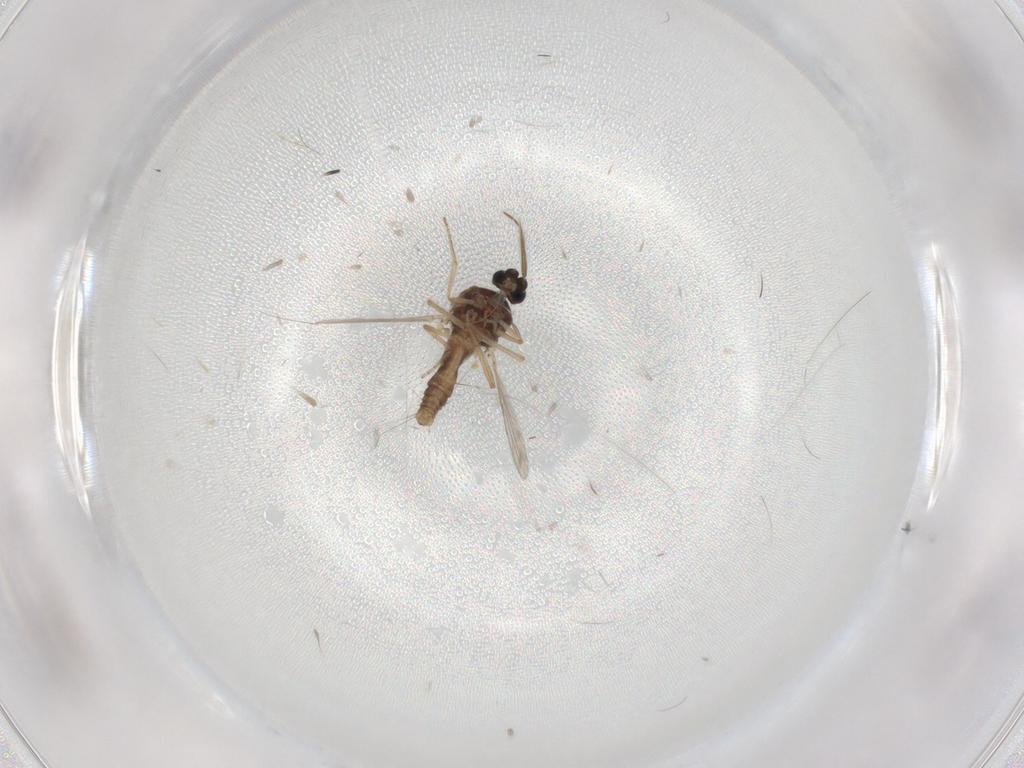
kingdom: Animalia
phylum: Arthropoda
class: Insecta
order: Diptera
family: Ceratopogonidae
